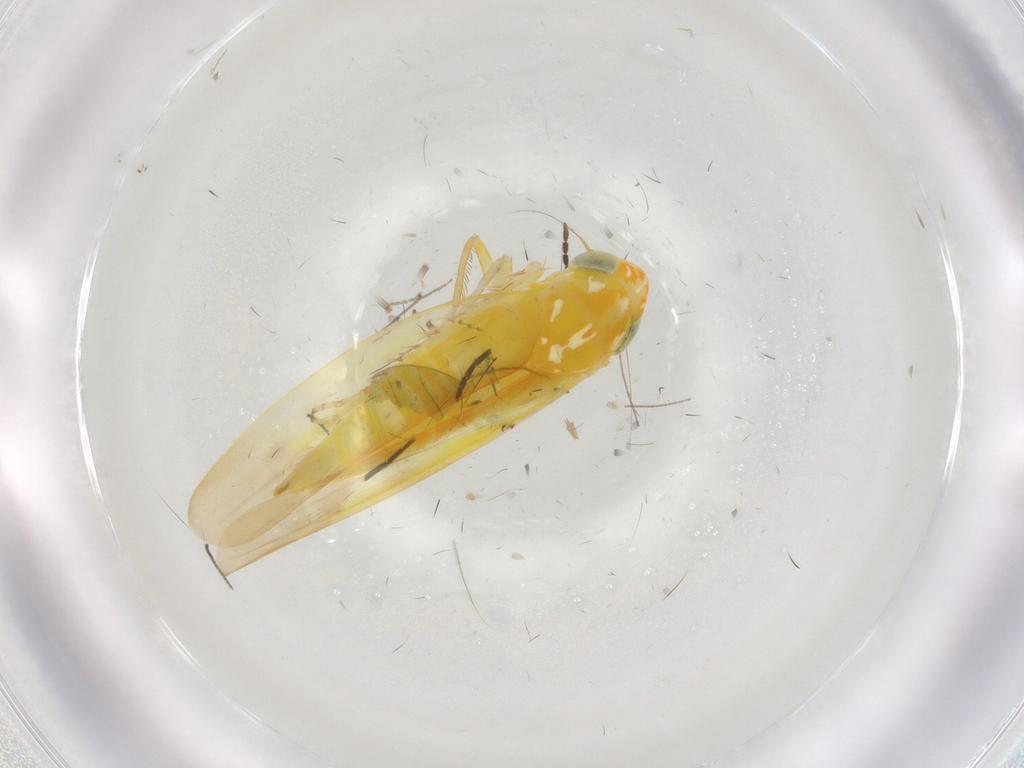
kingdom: Animalia
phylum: Arthropoda
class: Insecta
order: Hemiptera
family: Cicadellidae
